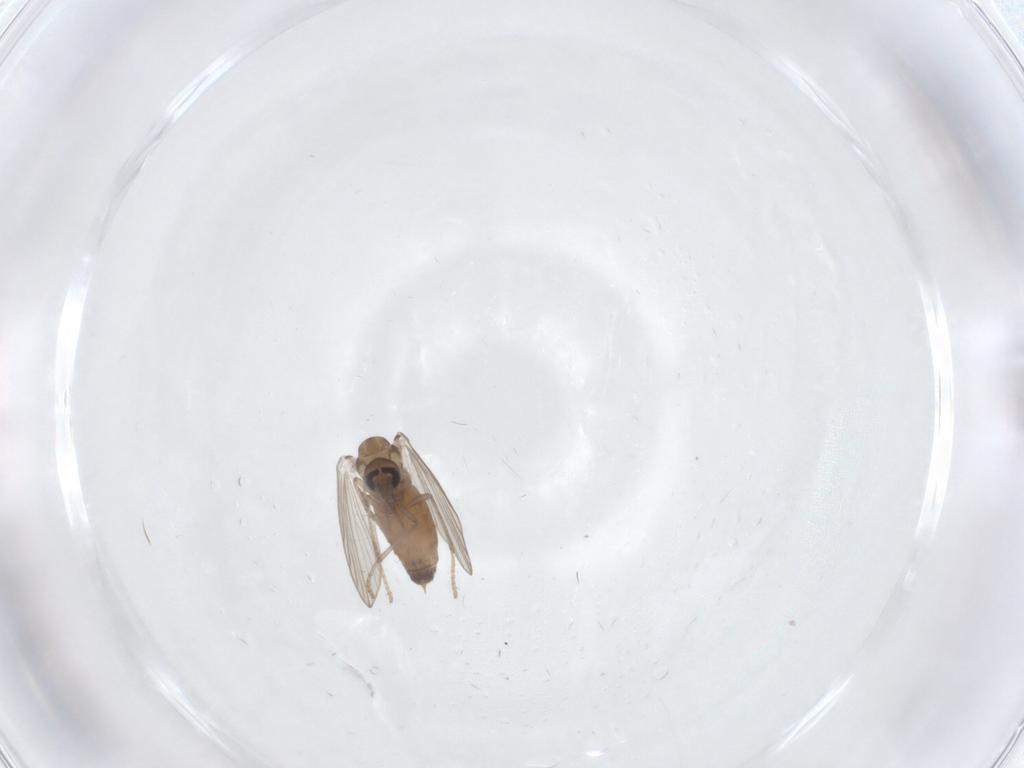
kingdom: Animalia
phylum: Arthropoda
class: Insecta
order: Diptera
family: Psychodidae
